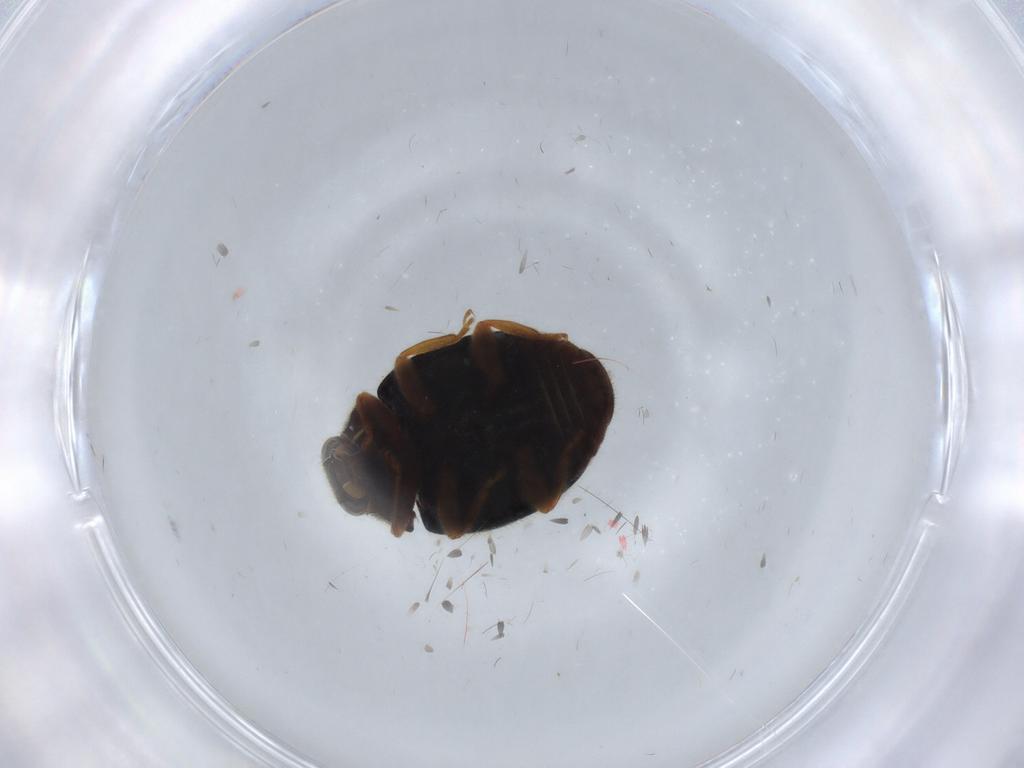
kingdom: Animalia
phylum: Arthropoda
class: Insecta
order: Coleoptera
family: Coccinellidae
